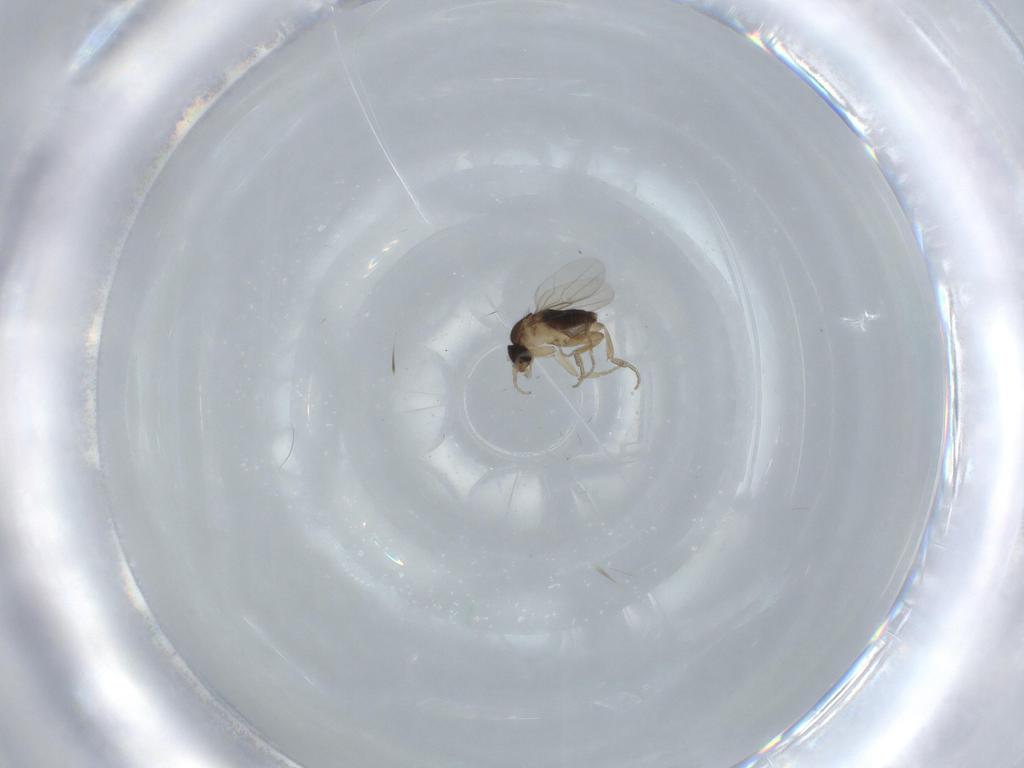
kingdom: Animalia
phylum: Arthropoda
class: Insecta
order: Diptera
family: Phoridae
